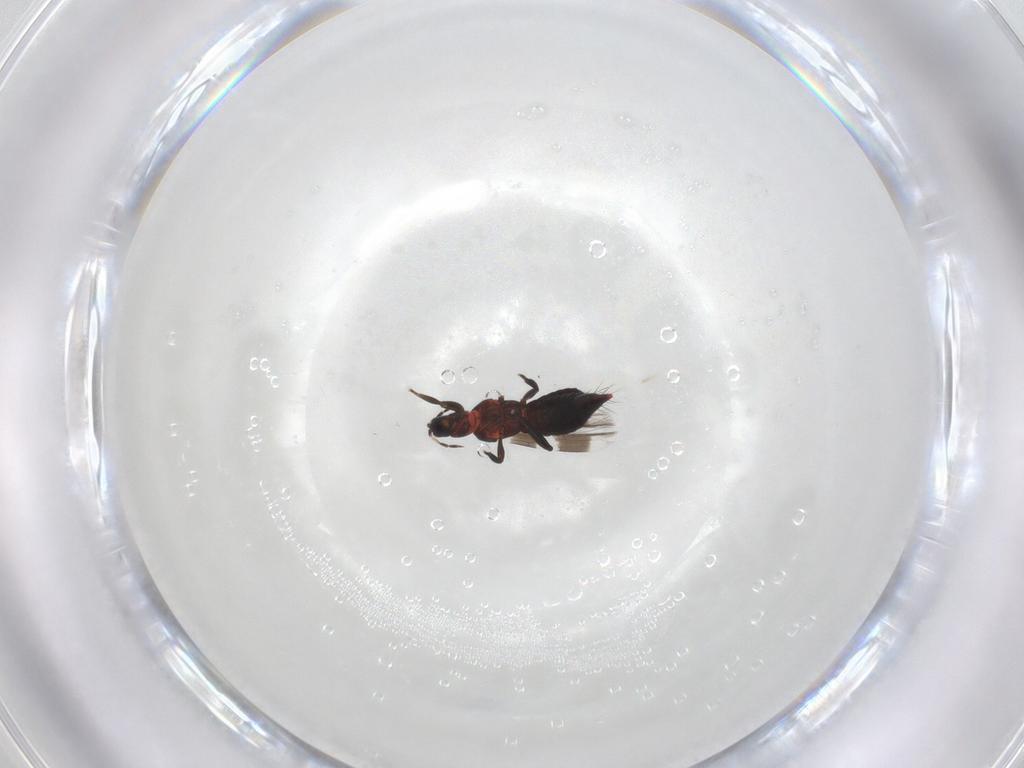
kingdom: Animalia
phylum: Arthropoda
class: Insecta
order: Thysanoptera
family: Aeolothripidae
